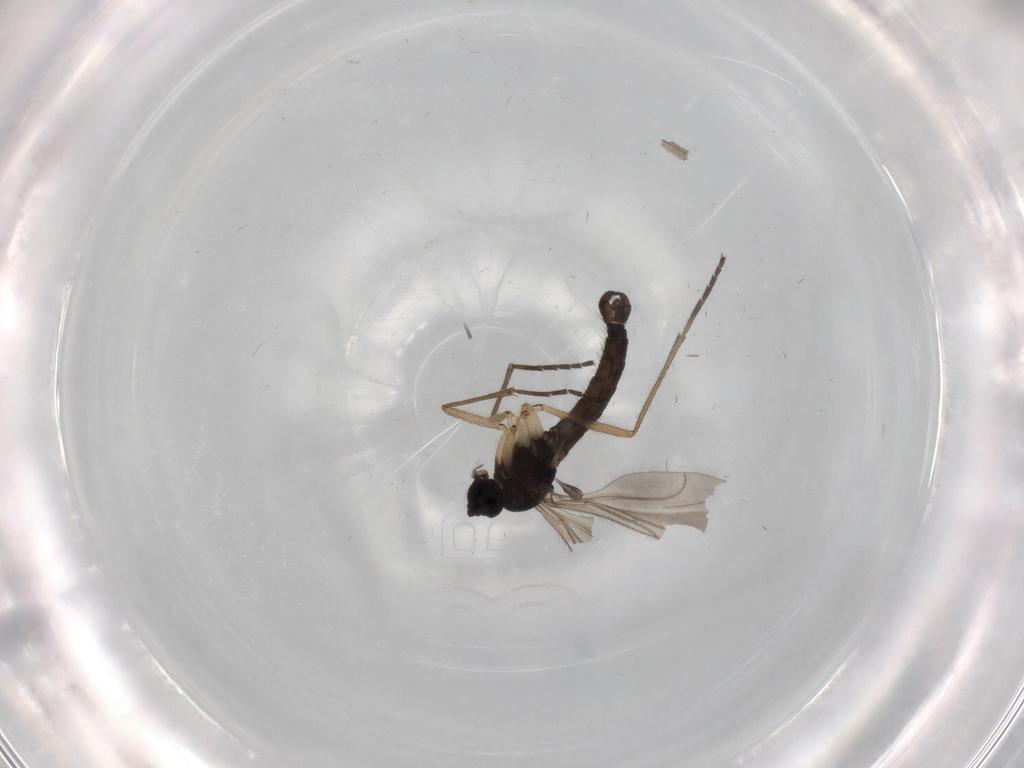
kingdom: Animalia
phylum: Arthropoda
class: Insecta
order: Diptera
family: Sciaridae
